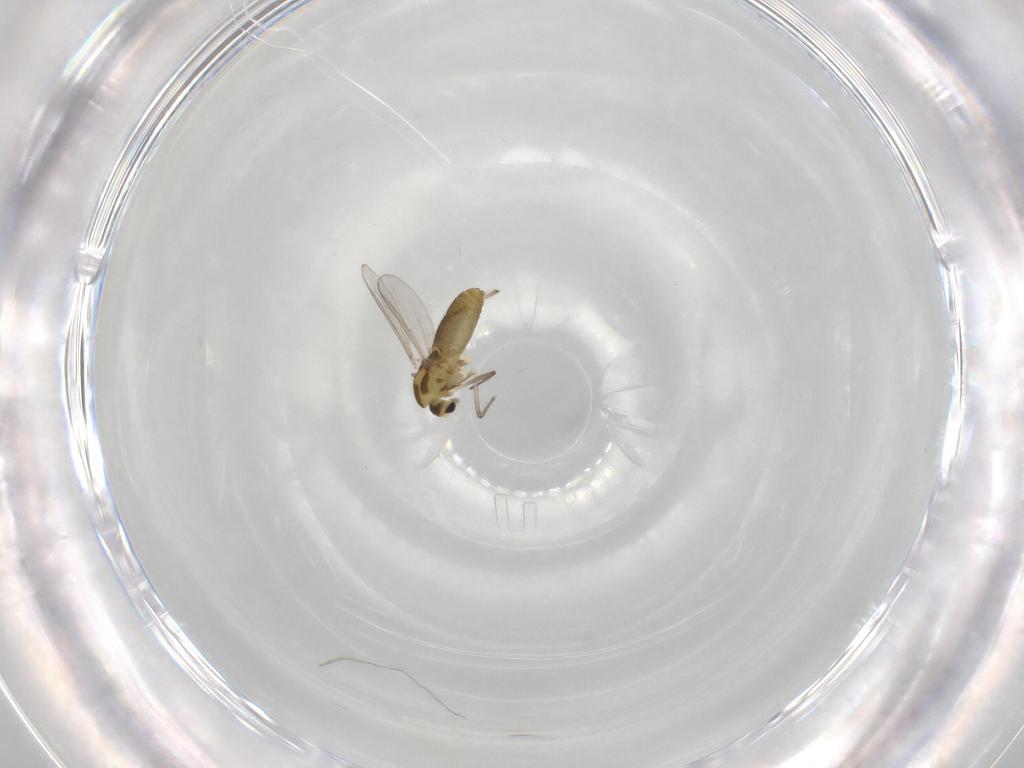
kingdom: Animalia
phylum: Arthropoda
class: Insecta
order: Diptera
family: Chironomidae
